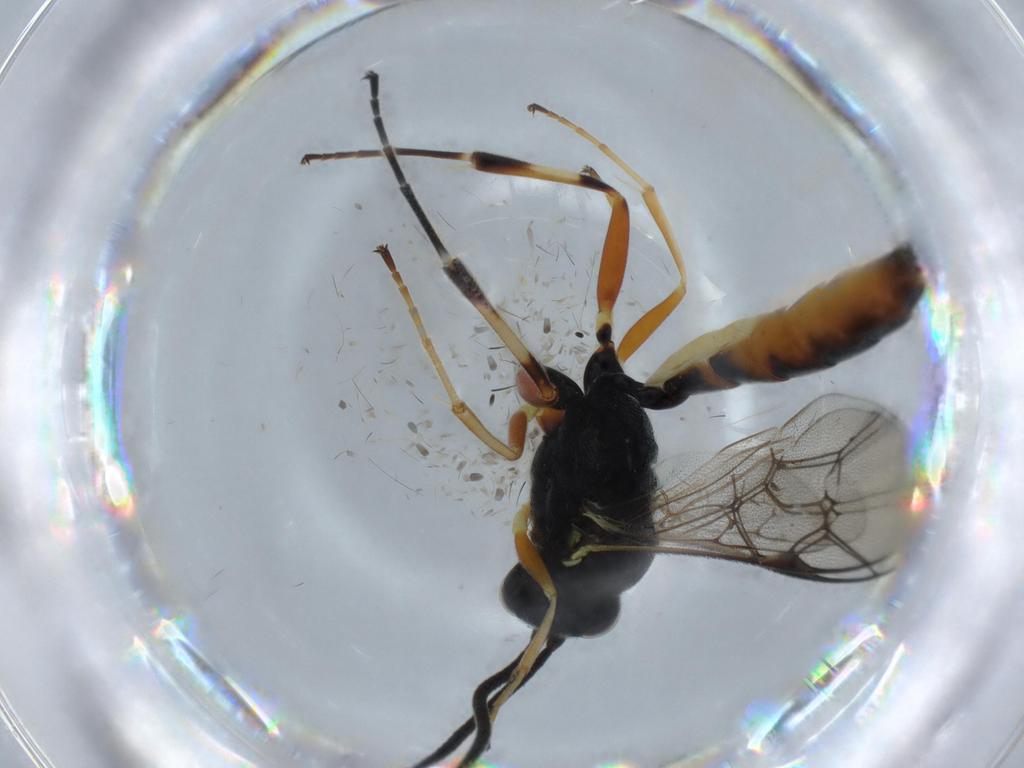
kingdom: Animalia
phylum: Arthropoda
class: Insecta
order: Hymenoptera
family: Ichneumonidae
